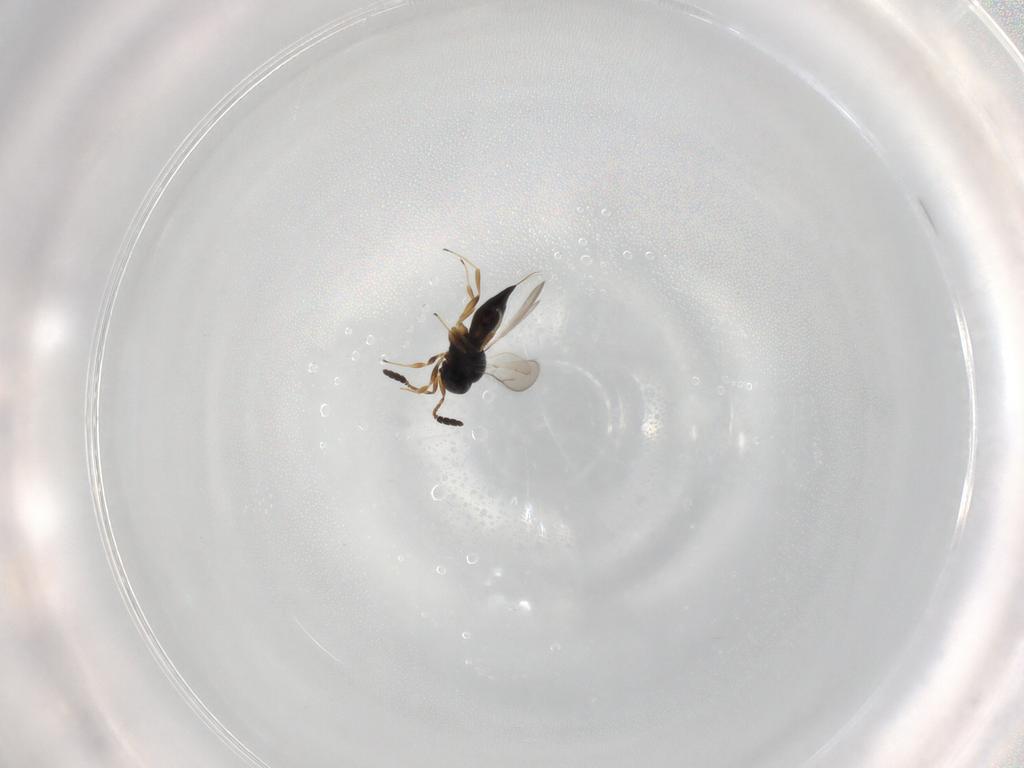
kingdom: Animalia
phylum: Arthropoda
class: Insecta
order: Hymenoptera
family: Scelionidae
